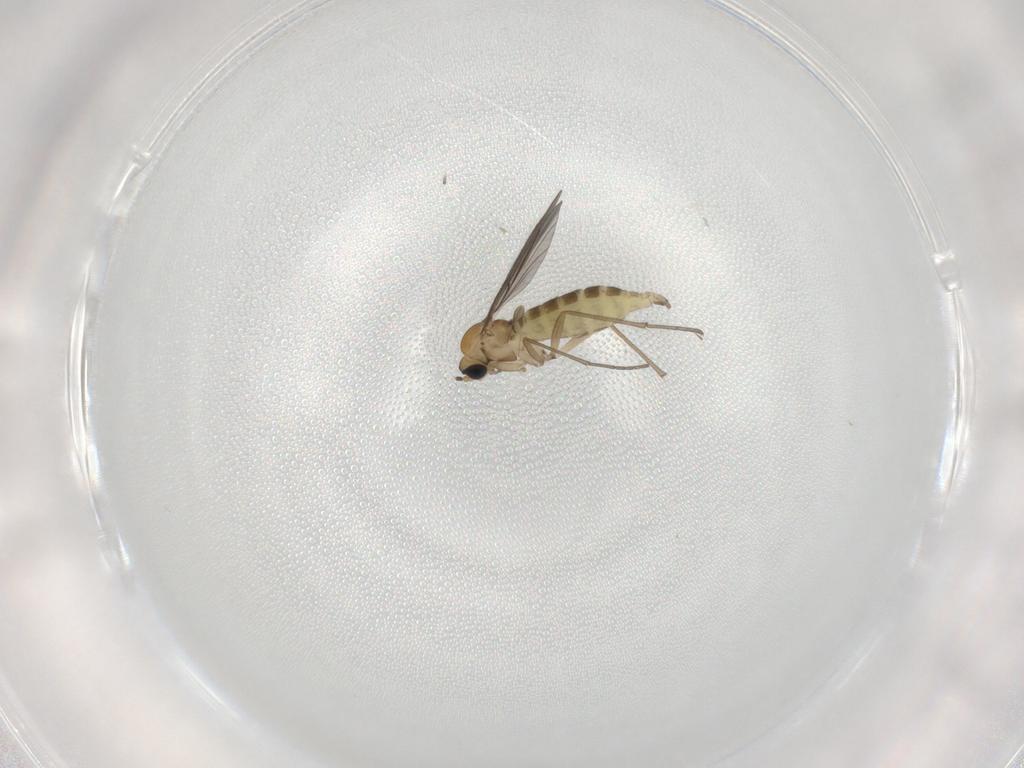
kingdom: Animalia
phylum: Arthropoda
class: Insecta
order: Diptera
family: Sciaridae
